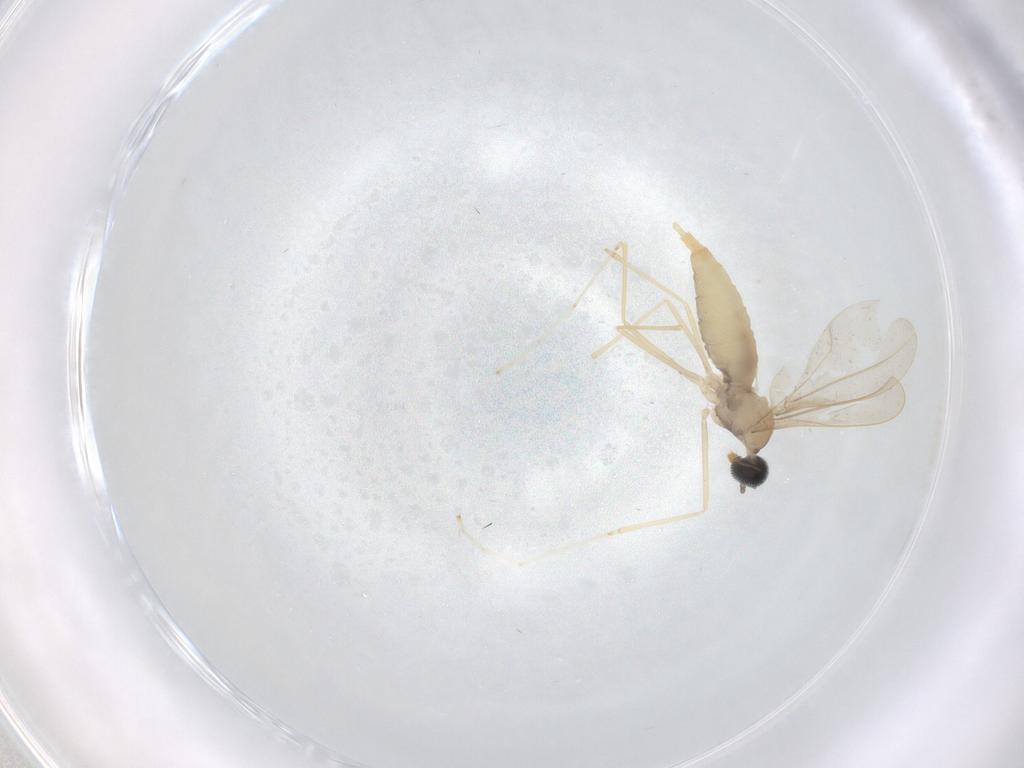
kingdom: Animalia
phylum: Arthropoda
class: Insecta
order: Diptera
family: Cecidomyiidae
